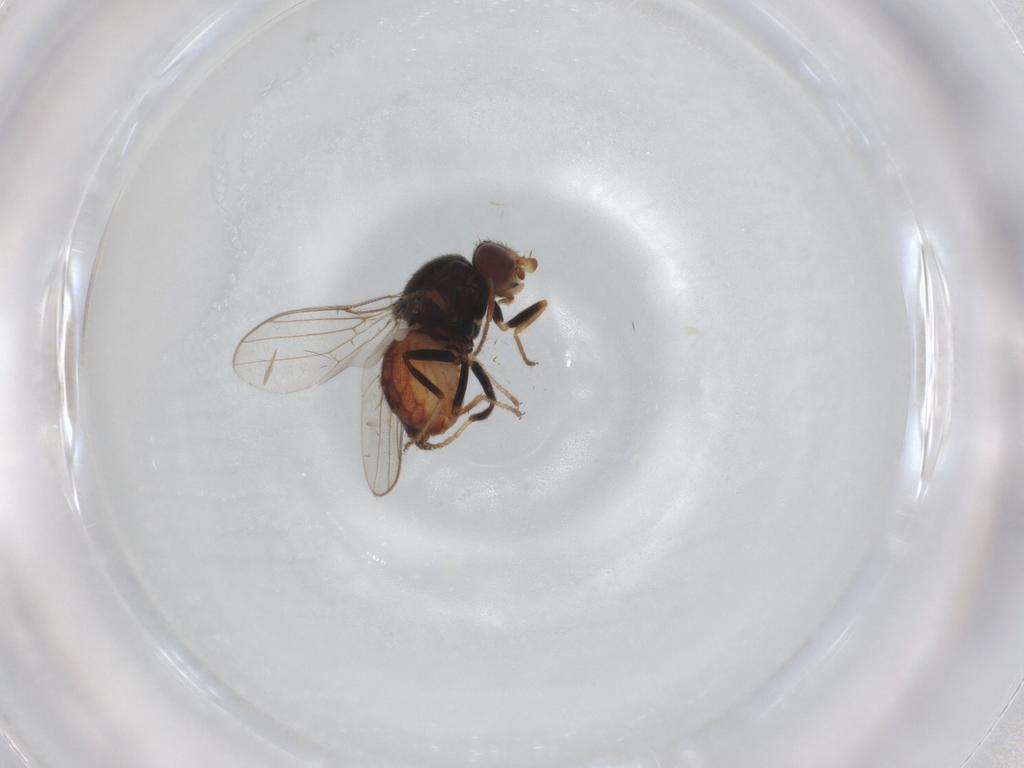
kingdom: Animalia
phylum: Arthropoda
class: Insecta
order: Diptera
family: Chloropidae
